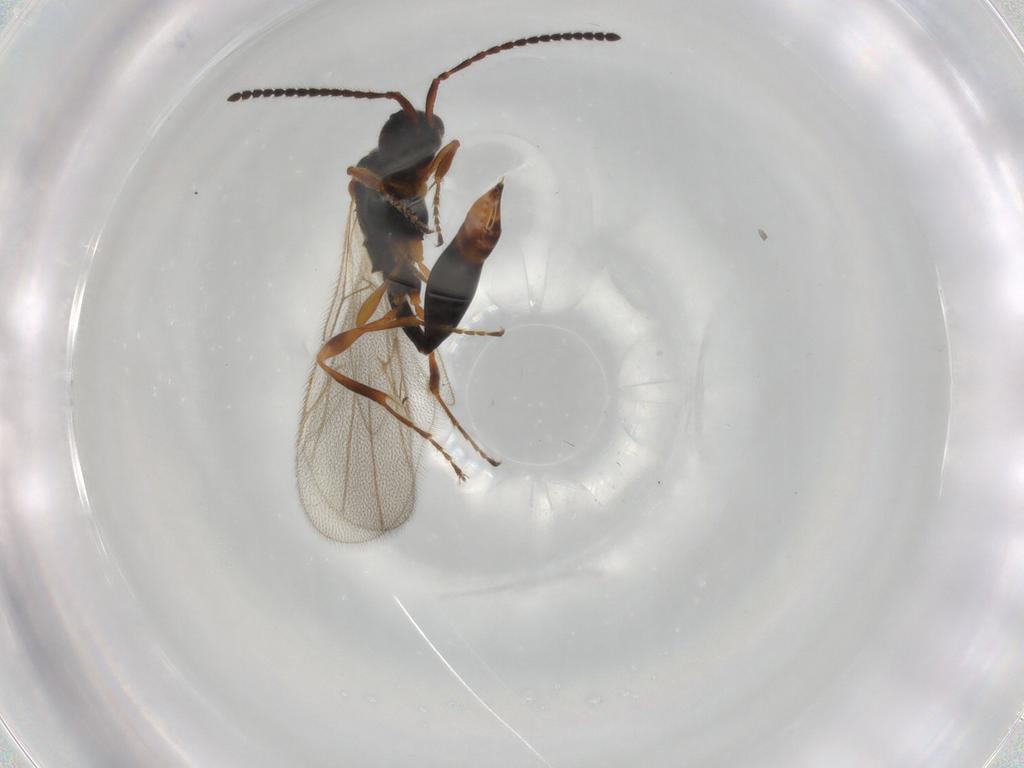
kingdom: Animalia
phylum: Arthropoda
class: Insecta
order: Hymenoptera
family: Diapriidae
